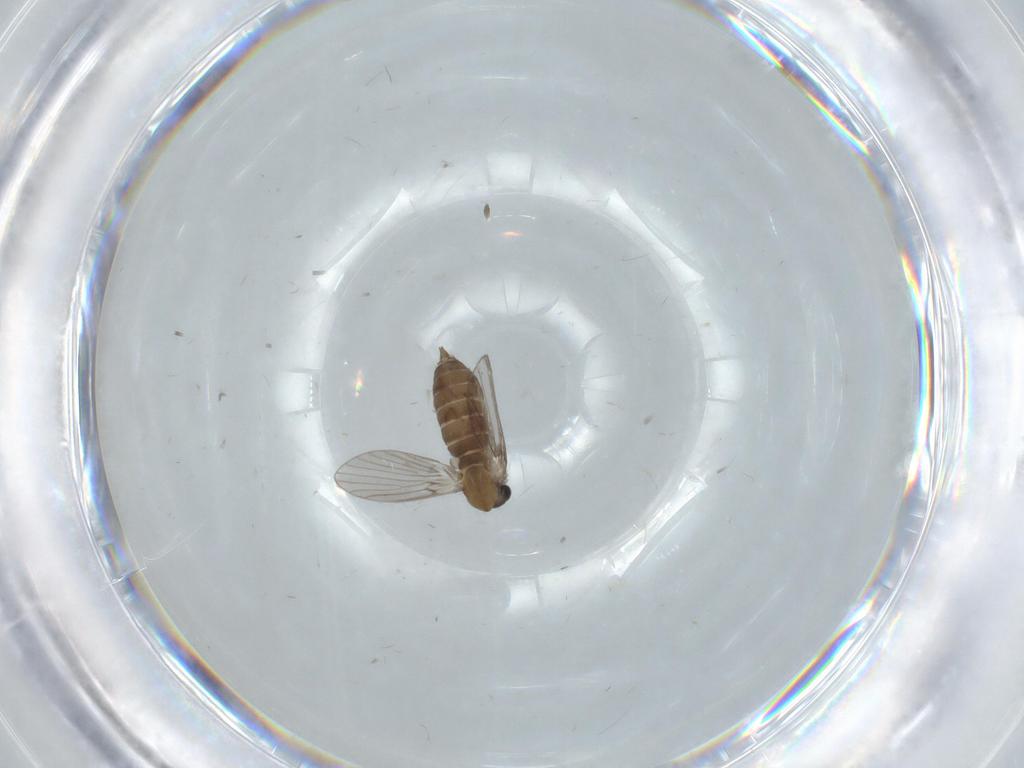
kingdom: Animalia
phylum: Arthropoda
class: Insecta
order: Diptera
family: Psychodidae
